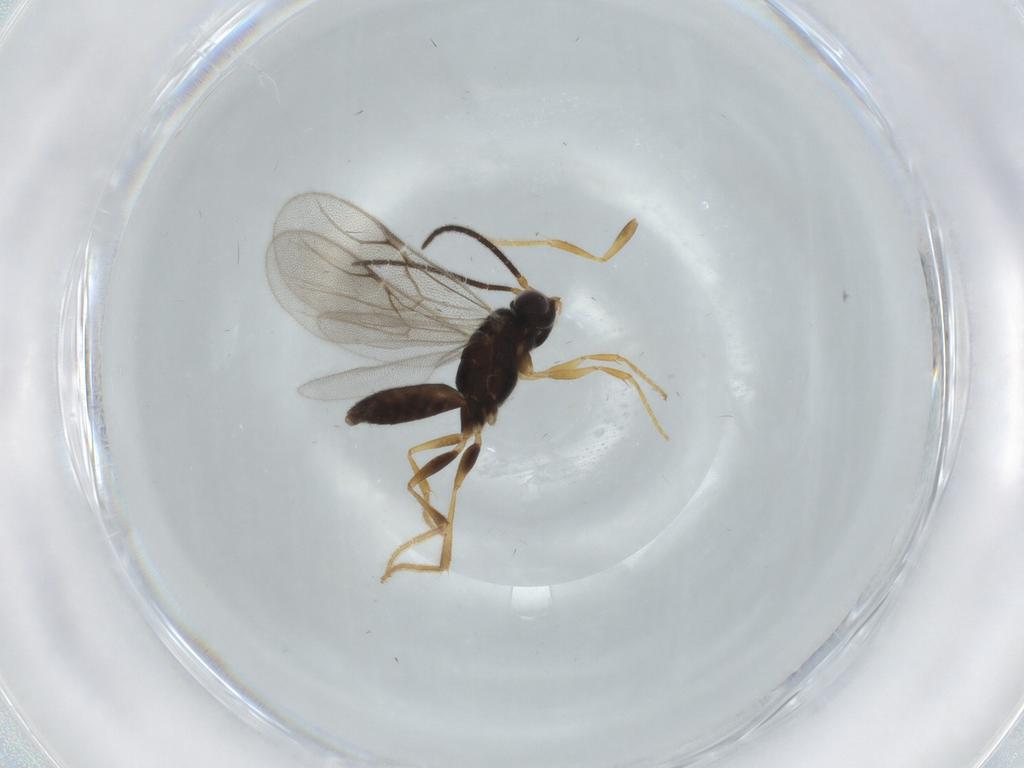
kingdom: Animalia
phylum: Arthropoda
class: Insecta
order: Hymenoptera
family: Dryinidae
